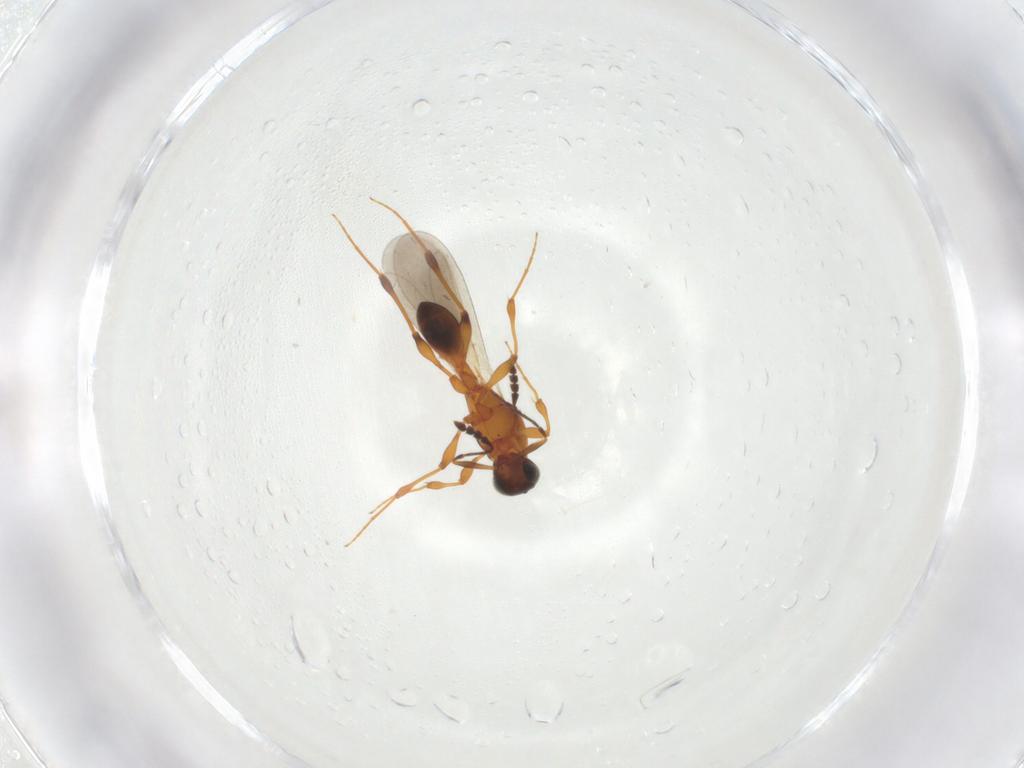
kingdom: Animalia
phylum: Arthropoda
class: Insecta
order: Hymenoptera
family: Platygastridae
